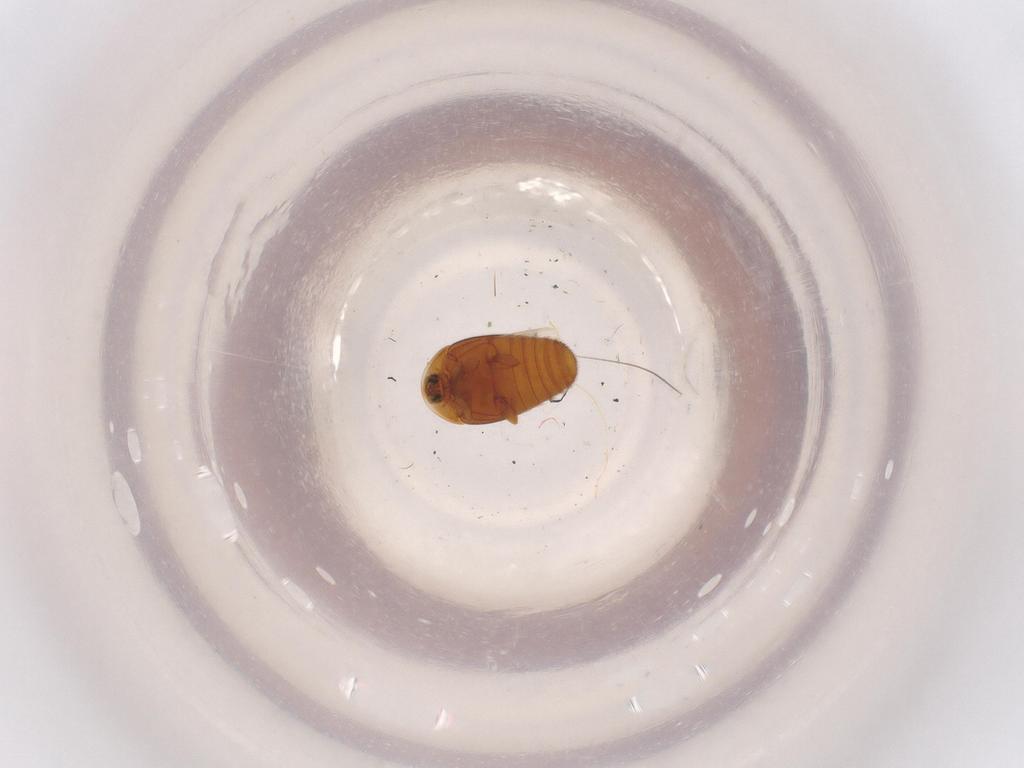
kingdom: Animalia
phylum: Arthropoda
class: Insecta
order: Coleoptera
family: Corylophidae
